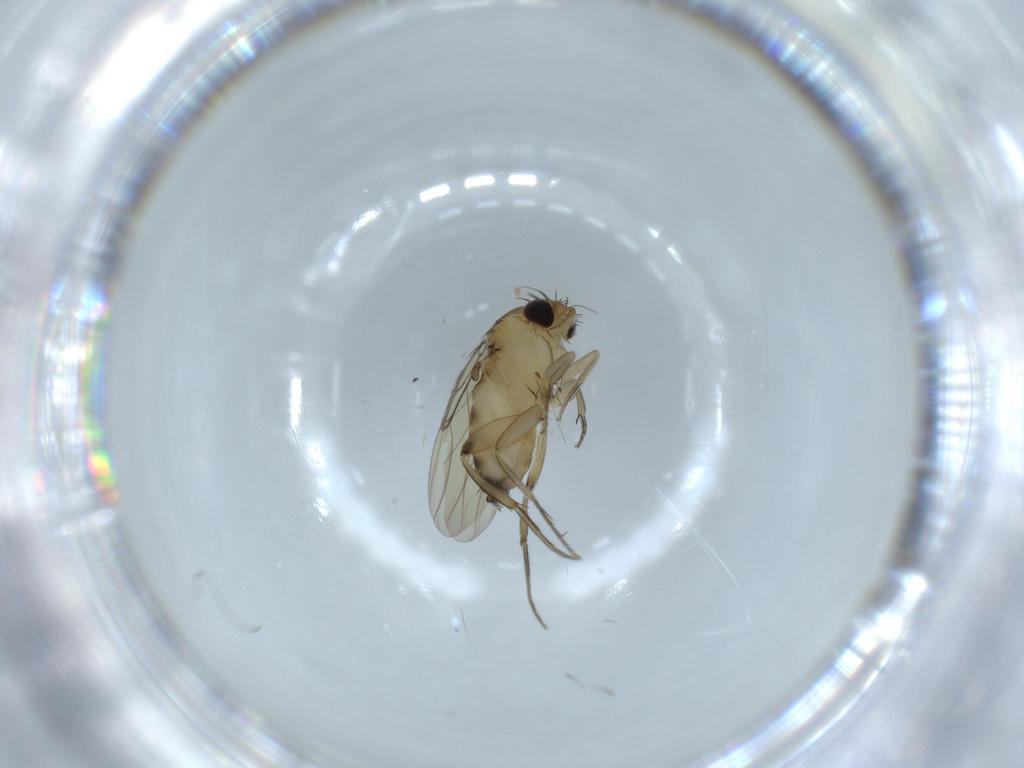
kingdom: Animalia
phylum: Arthropoda
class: Insecta
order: Diptera
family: Phoridae
